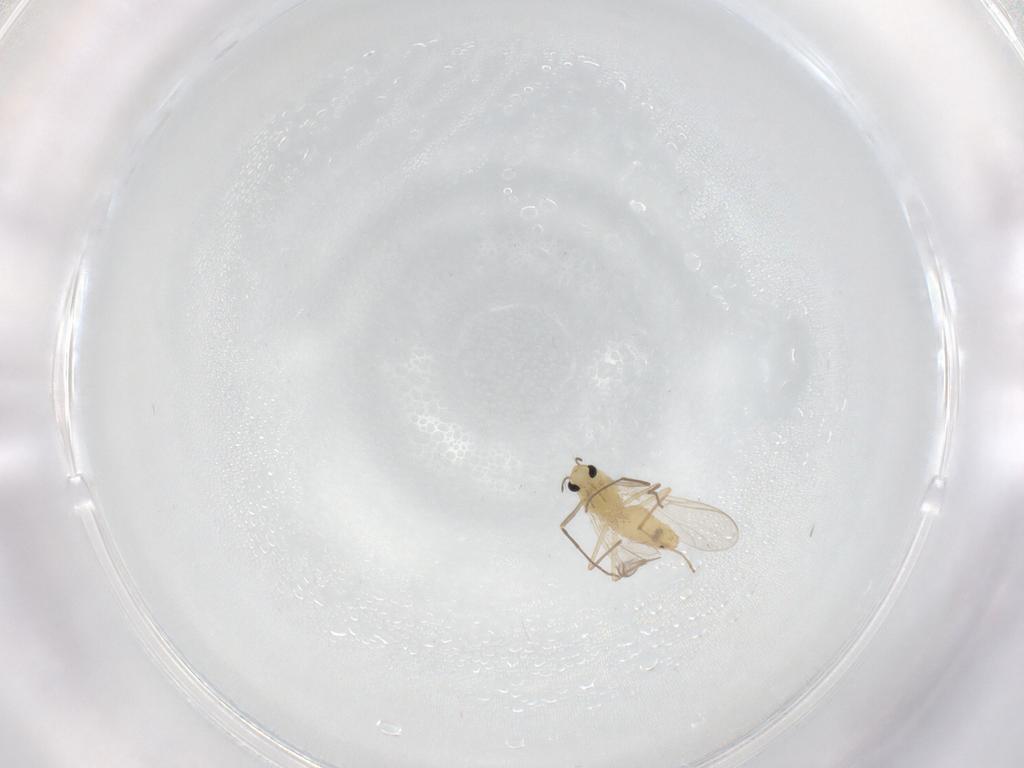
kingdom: Animalia
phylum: Arthropoda
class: Insecta
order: Diptera
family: Chironomidae
